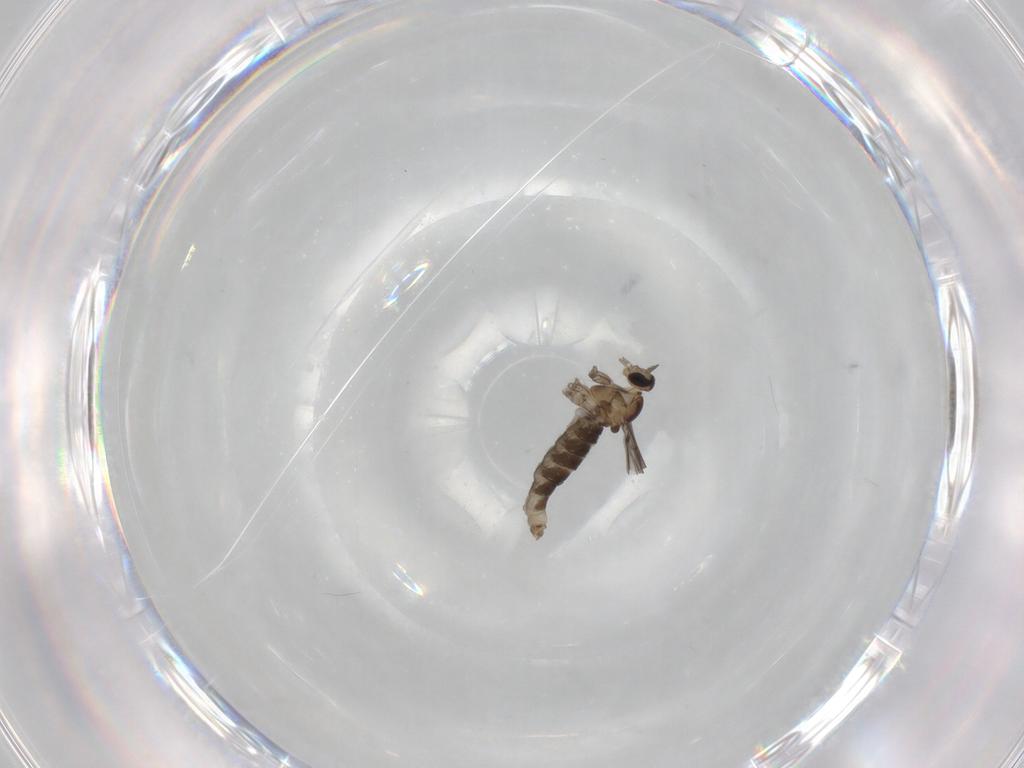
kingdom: Animalia
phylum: Arthropoda
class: Insecta
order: Diptera
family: Cecidomyiidae
